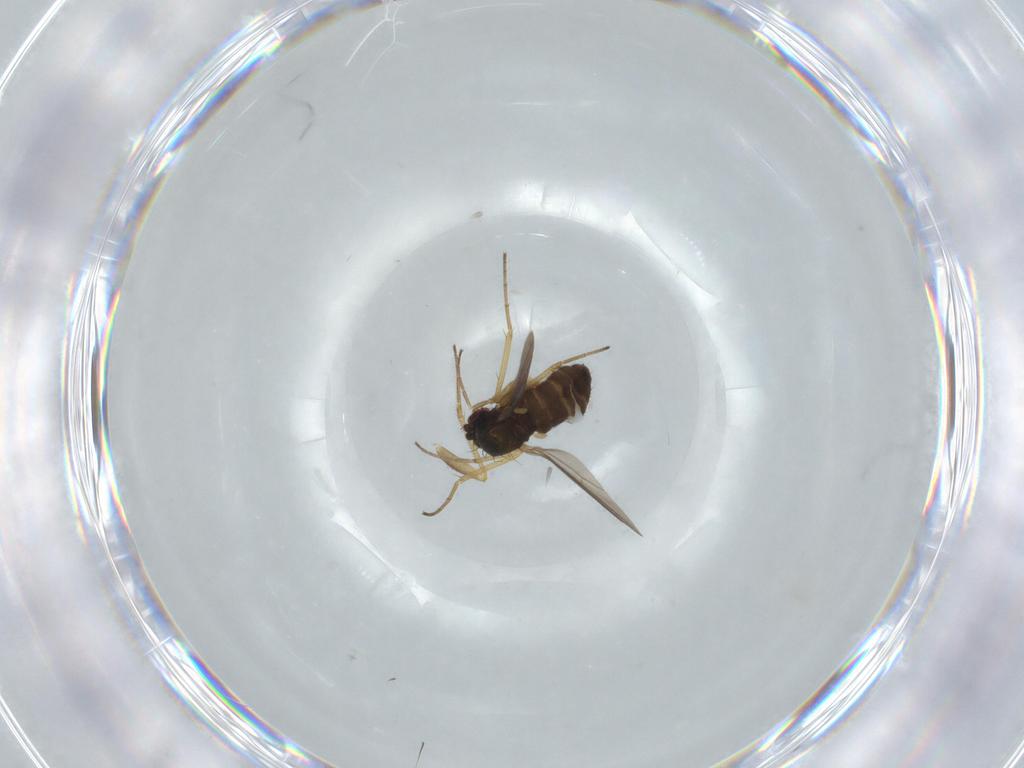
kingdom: Animalia
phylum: Arthropoda
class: Insecta
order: Diptera
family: Dolichopodidae
